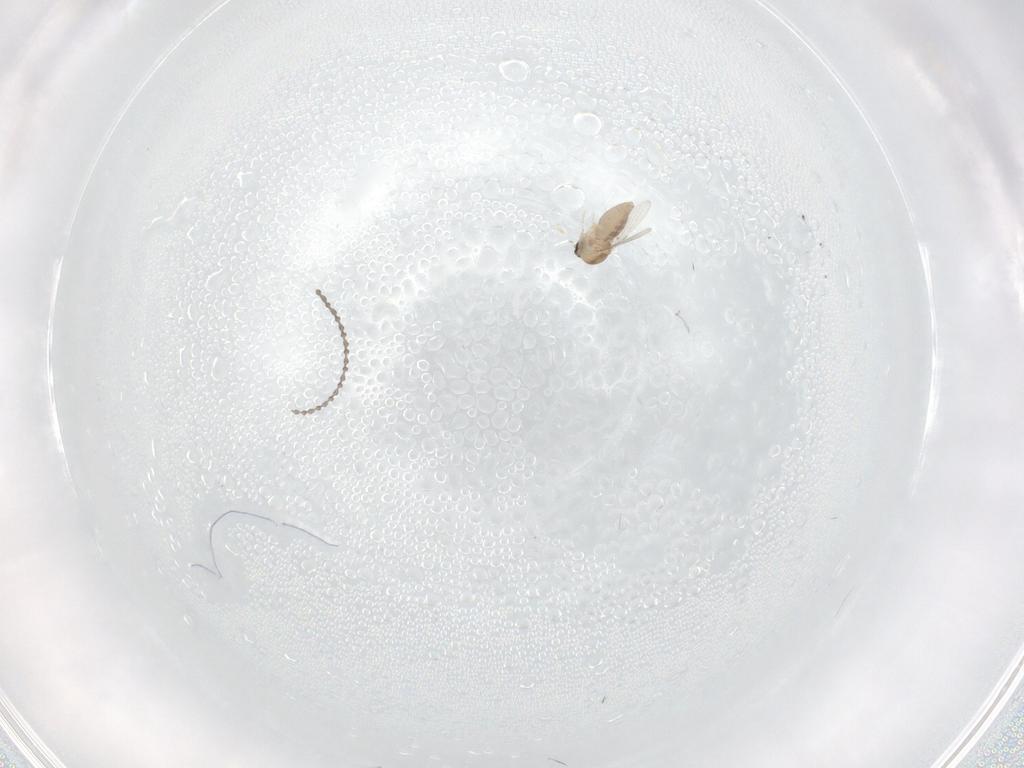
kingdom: Animalia
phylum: Arthropoda
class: Insecta
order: Diptera
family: Ceratopogonidae
